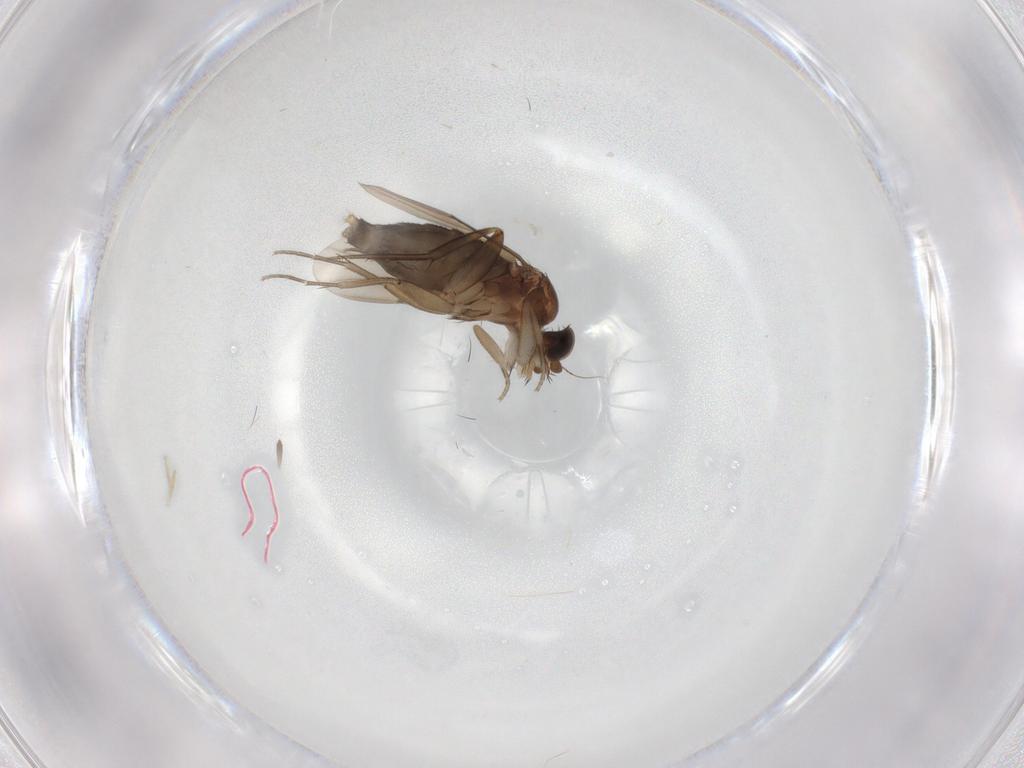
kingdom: Animalia
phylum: Arthropoda
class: Insecta
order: Diptera
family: Phoridae
